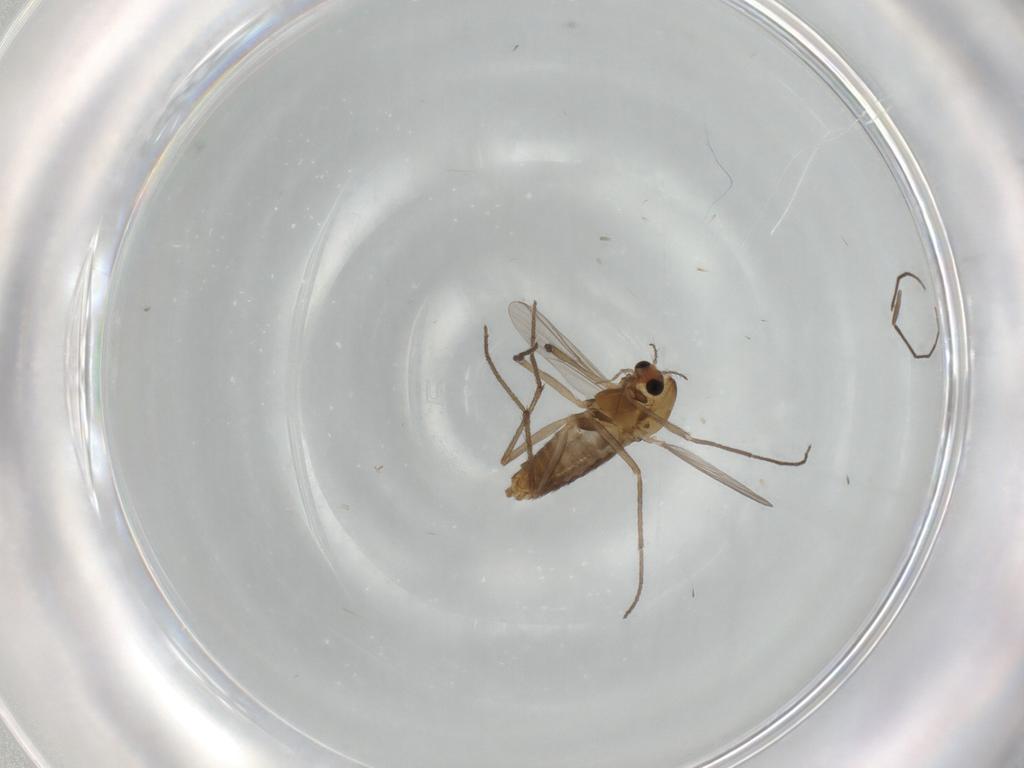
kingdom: Animalia
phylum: Arthropoda
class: Insecta
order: Diptera
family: Chironomidae
